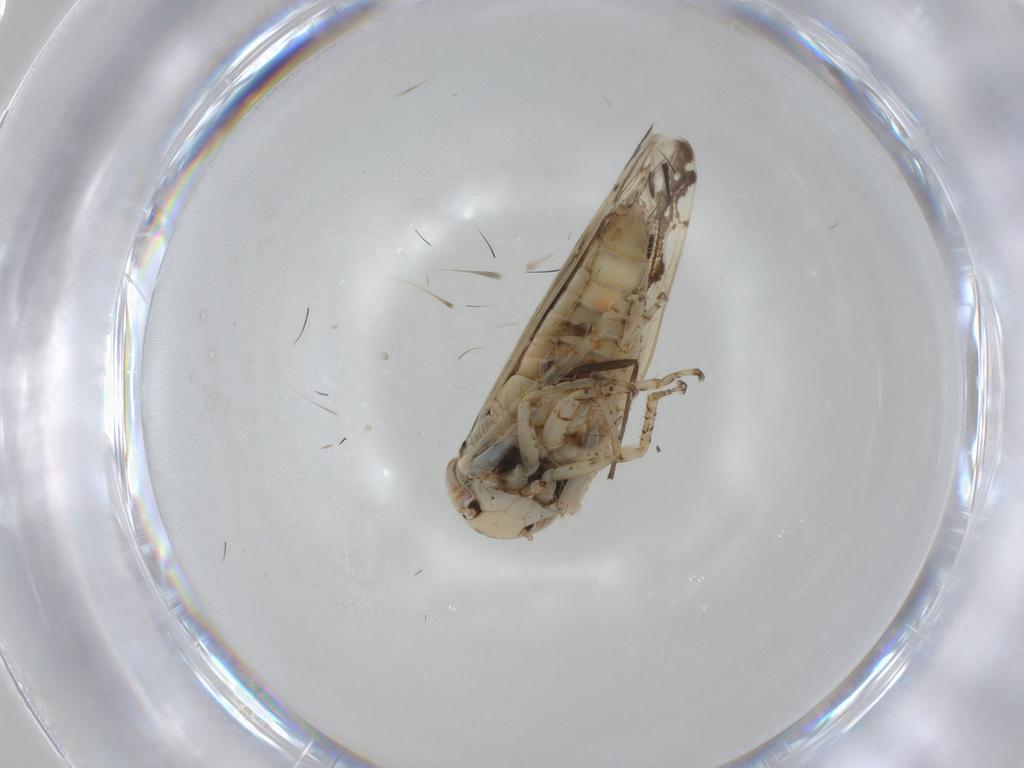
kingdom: Animalia
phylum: Arthropoda
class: Insecta
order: Hemiptera
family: Cicadellidae
